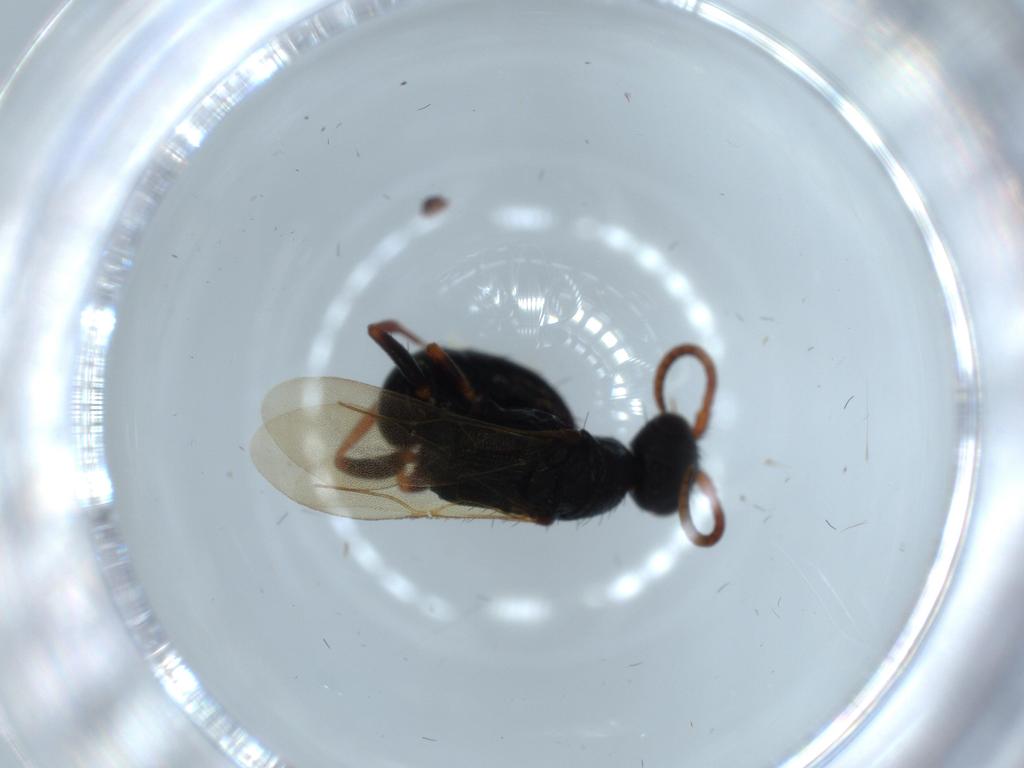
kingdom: Animalia
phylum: Arthropoda
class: Insecta
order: Hymenoptera
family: Bethylidae
